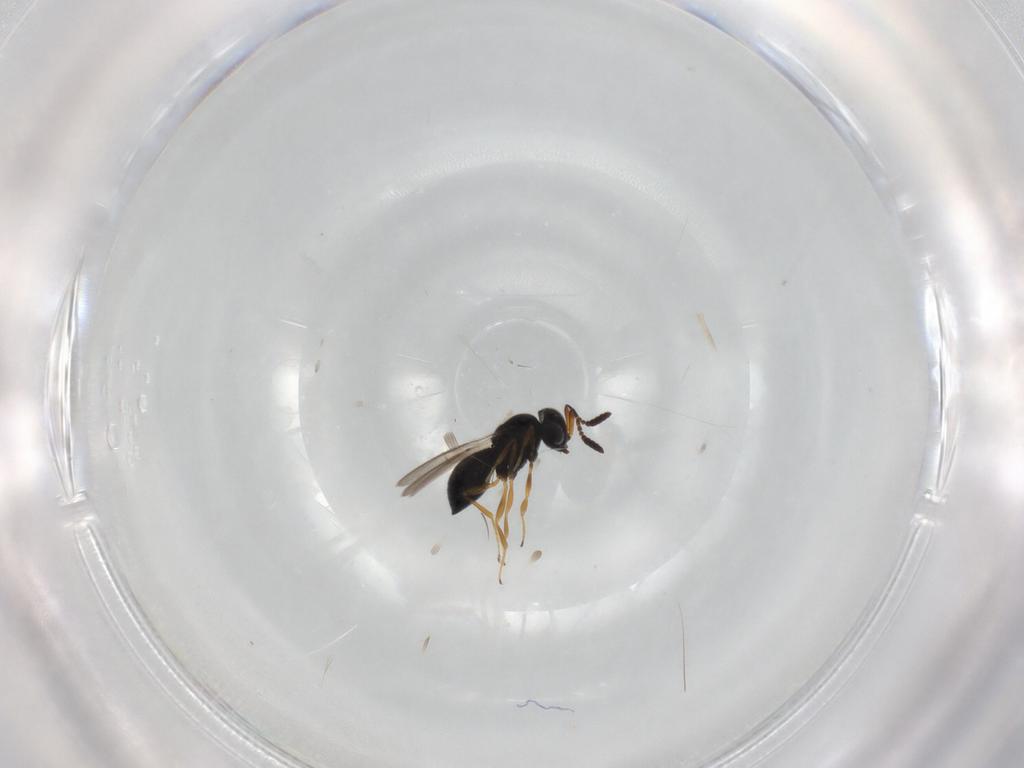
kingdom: Animalia
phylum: Arthropoda
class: Insecta
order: Hymenoptera
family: Scelionidae
